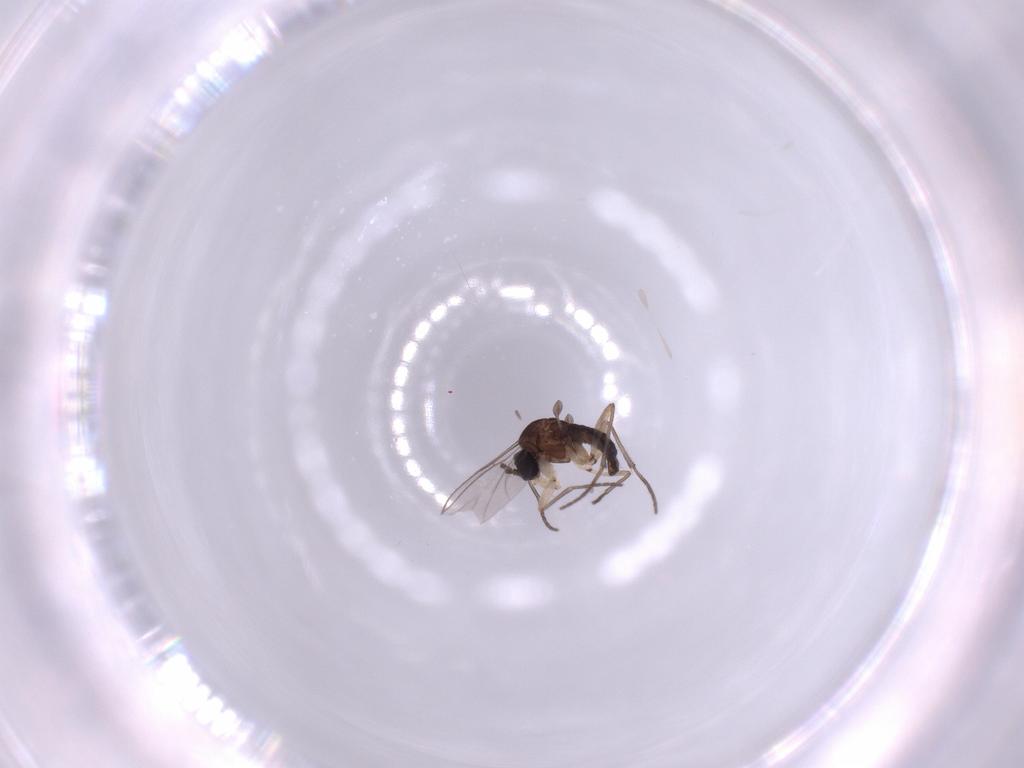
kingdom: Animalia
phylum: Arthropoda
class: Insecta
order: Diptera
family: Sciaridae
